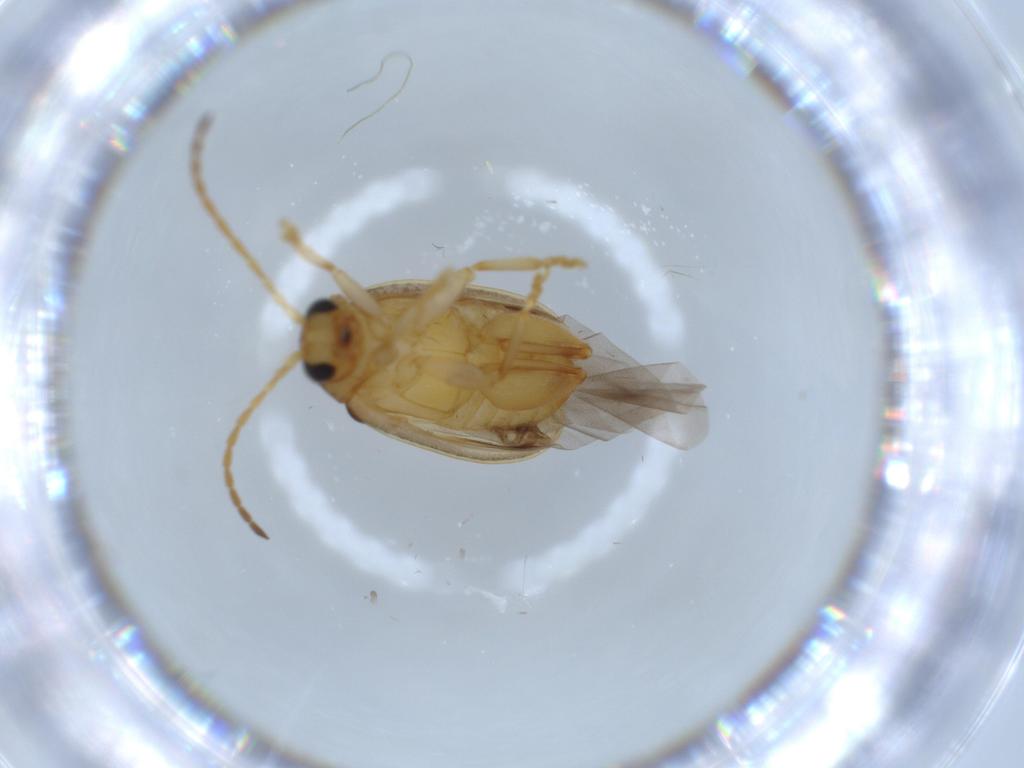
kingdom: Animalia
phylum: Arthropoda
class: Insecta
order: Coleoptera
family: Chrysomelidae
